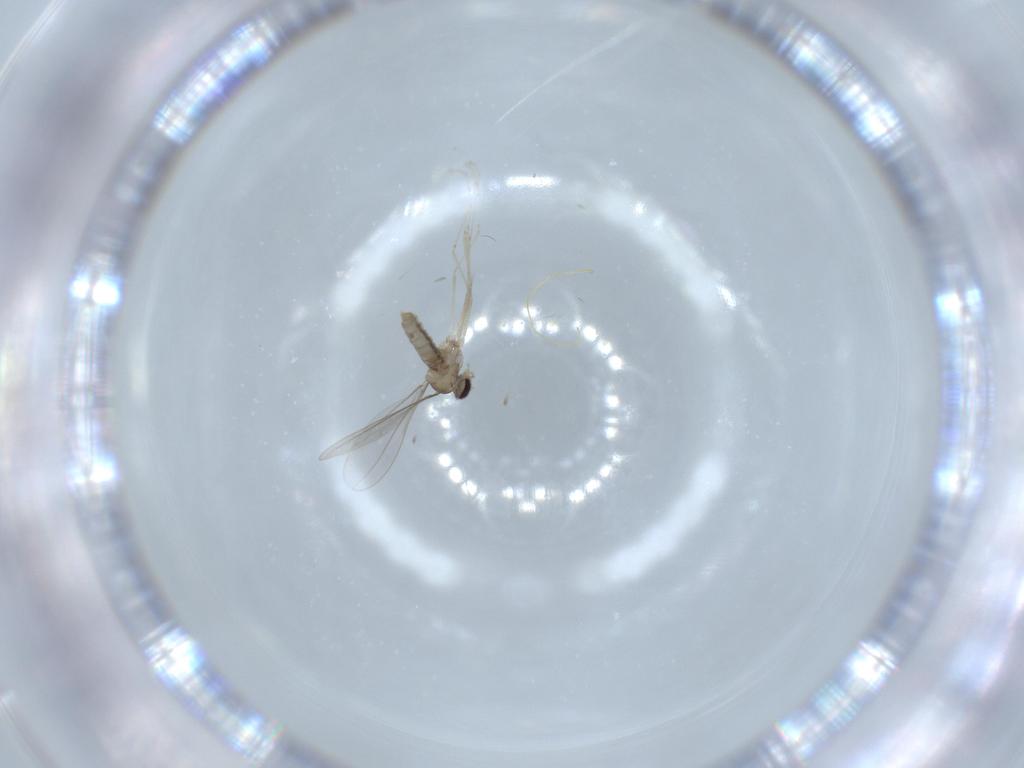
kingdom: Animalia
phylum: Arthropoda
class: Insecta
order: Diptera
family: Cecidomyiidae
